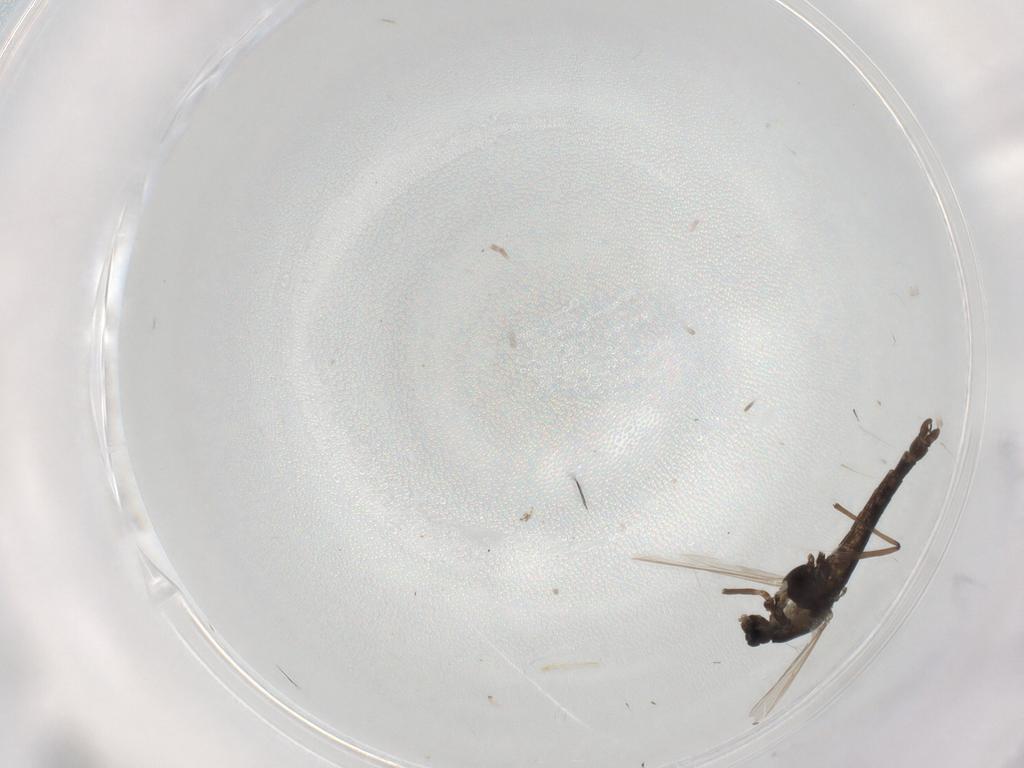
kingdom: Animalia
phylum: Arthropoda
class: Insecta
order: Diptera
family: Chironomidae
